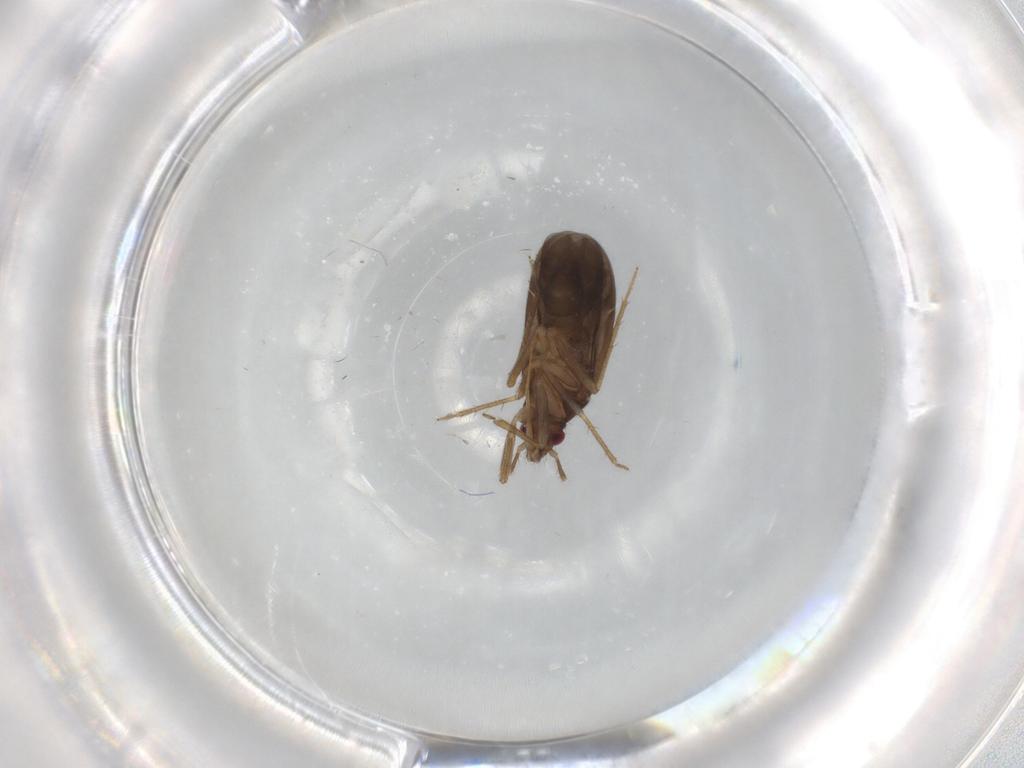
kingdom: Animalia
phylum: Arthropoda
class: Insecta
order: Hemiptera
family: Ceratocombidae
